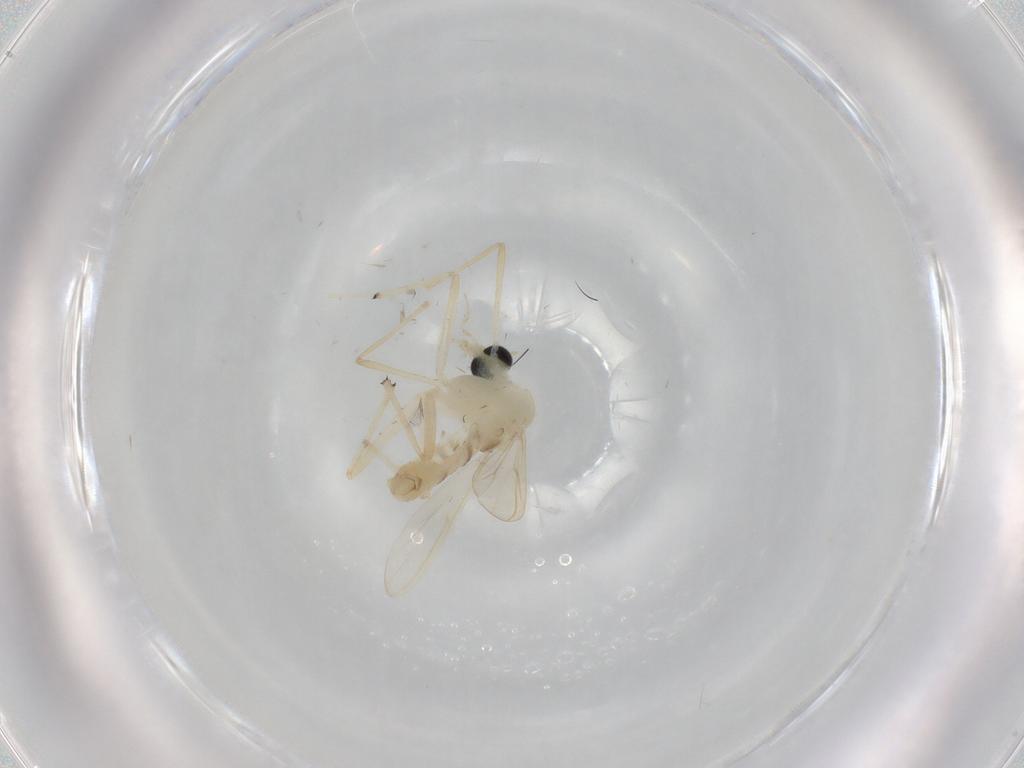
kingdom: Animalia
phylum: Arthropoda
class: Insecta
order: Diptera
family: Chironomidae
